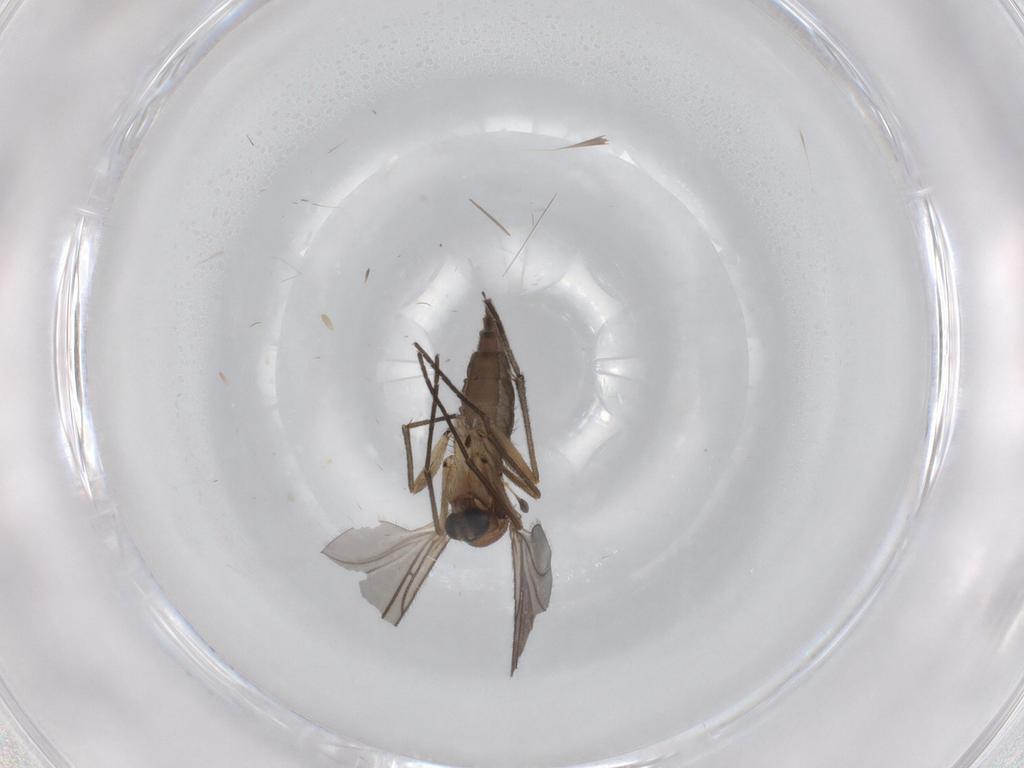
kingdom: Animalia
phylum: Arthropoda
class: Insecta
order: Diptera
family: Sciaridae
